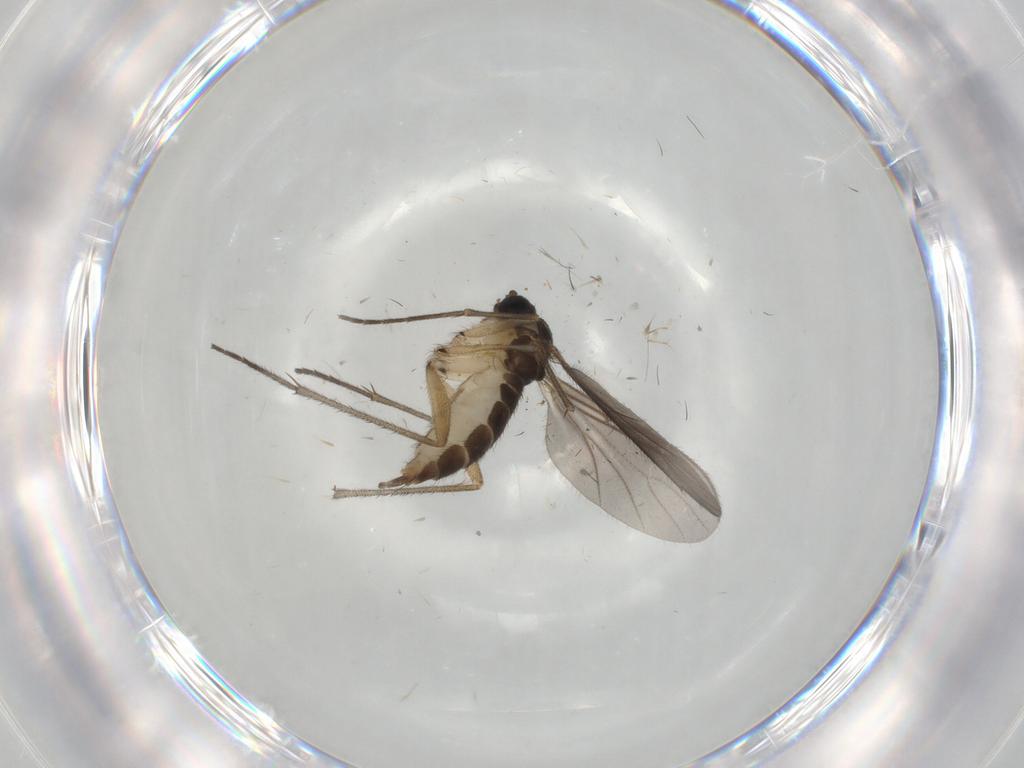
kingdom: Animalia
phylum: Arthropoda
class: Insecta
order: Diptera
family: Sciaridae
